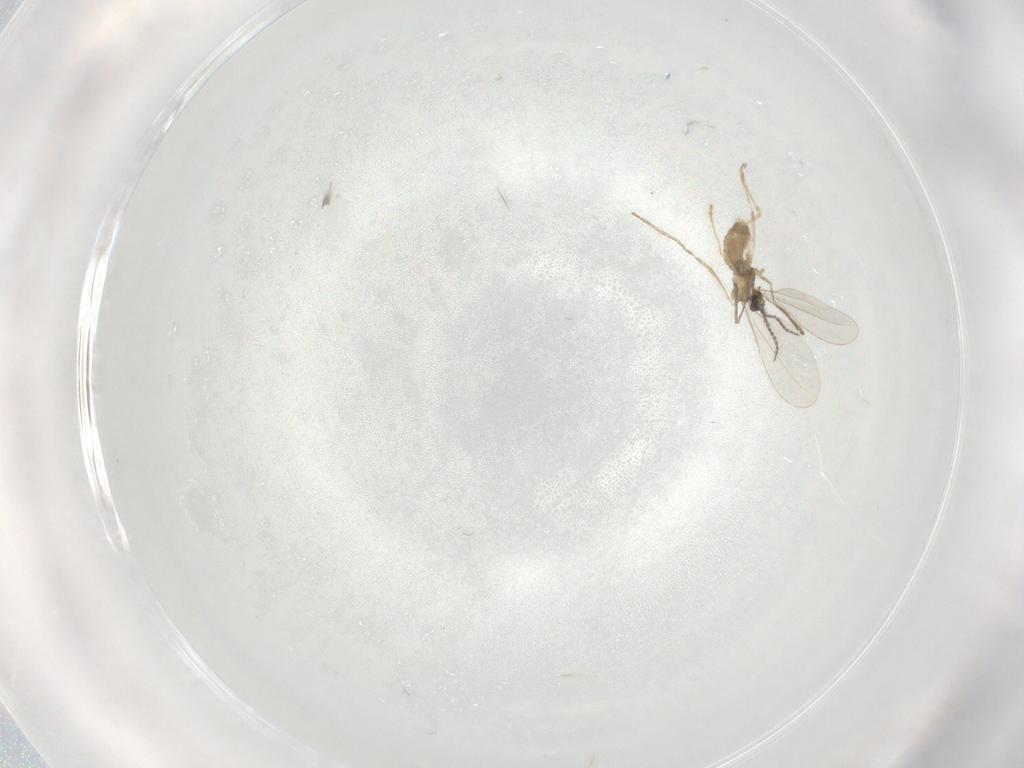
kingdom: Animalia
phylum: Arthropoda
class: Insecta
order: Diptera
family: Cecidomyiidae
